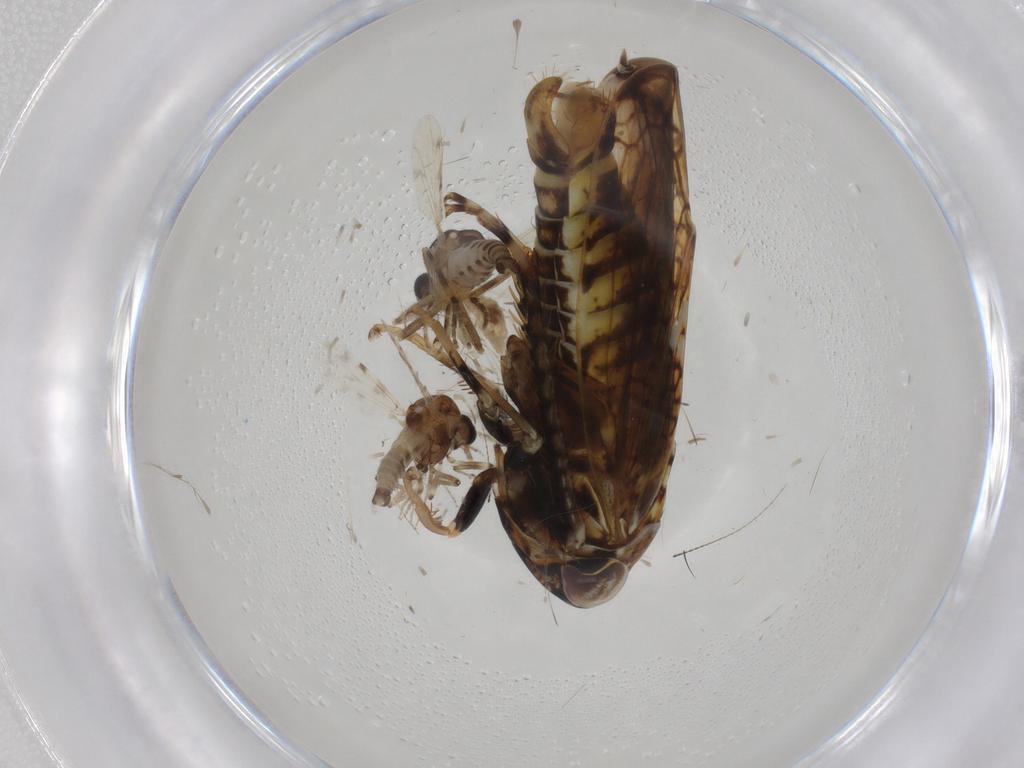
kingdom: Animalia
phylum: Arthropoda
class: Insecta
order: Diptera
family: Ceratopogonidae
